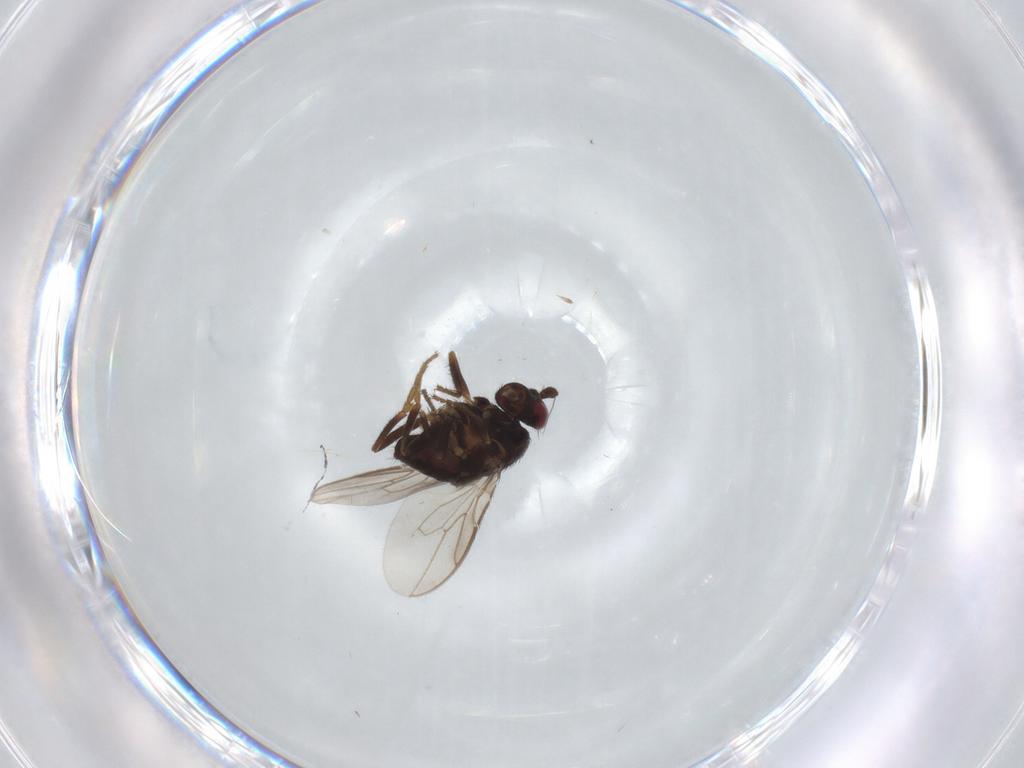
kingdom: Animalia
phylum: Arthropoda
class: Insecta
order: Diptera
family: Sphaeroceridae
